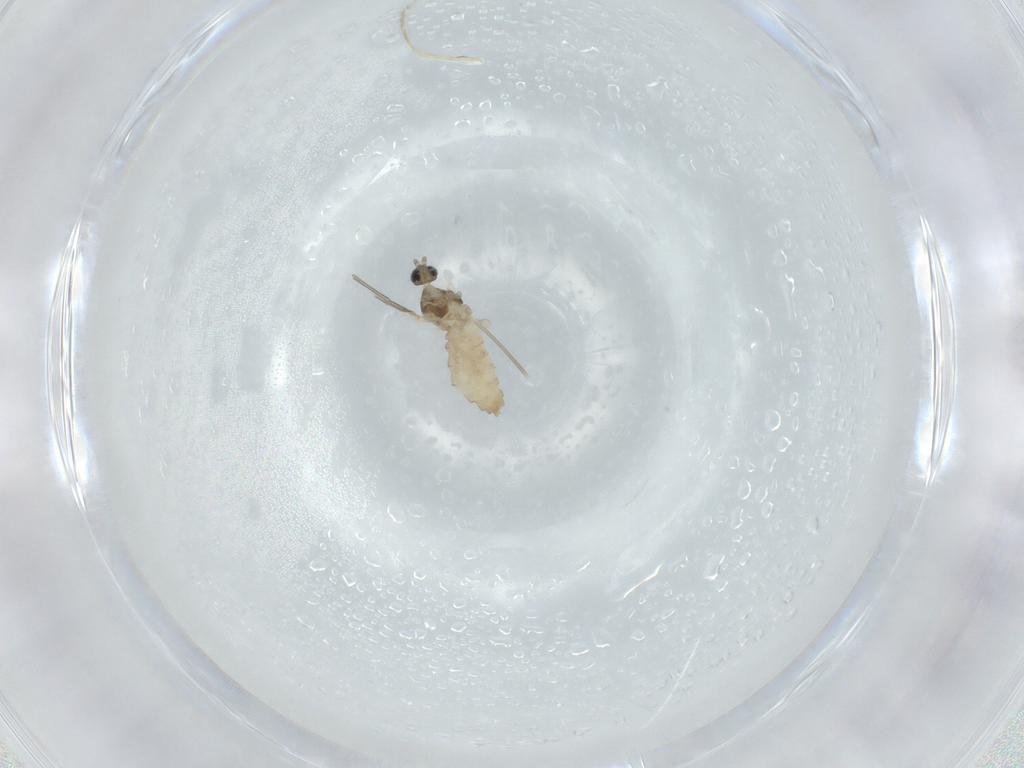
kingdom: Animalia
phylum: Arthropoda
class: Insecta
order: Diptera
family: Cecidomyiidae
